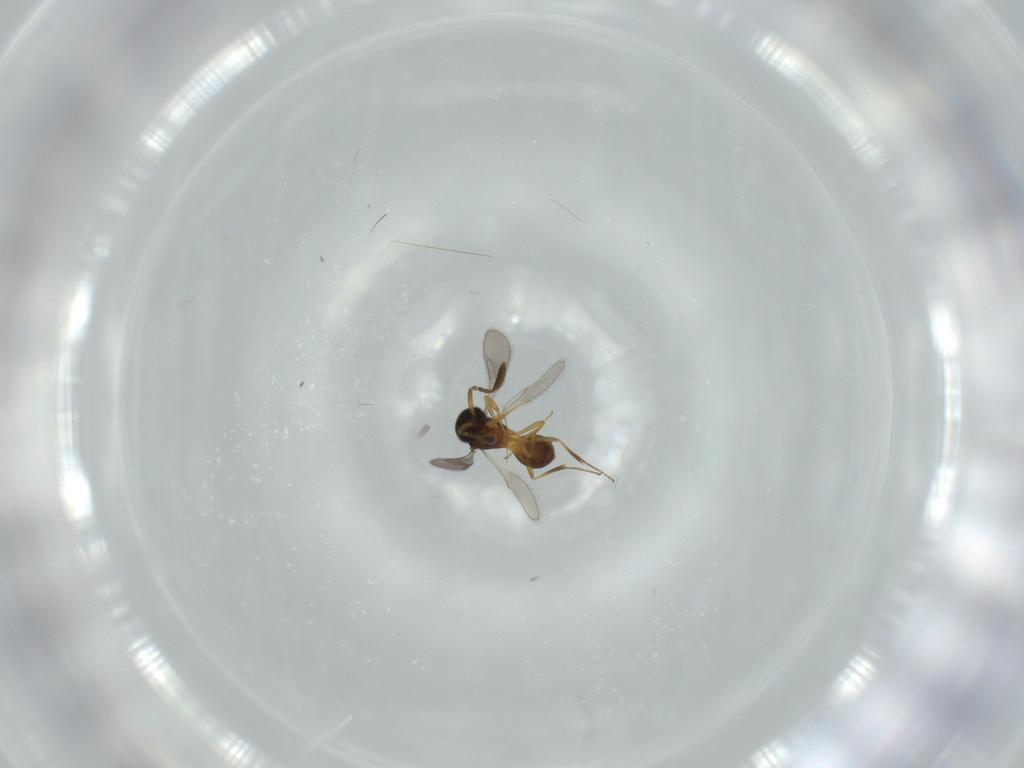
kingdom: Animalia
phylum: Arthropoda
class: Insecta
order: Hymenoptera
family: Scelionidae
